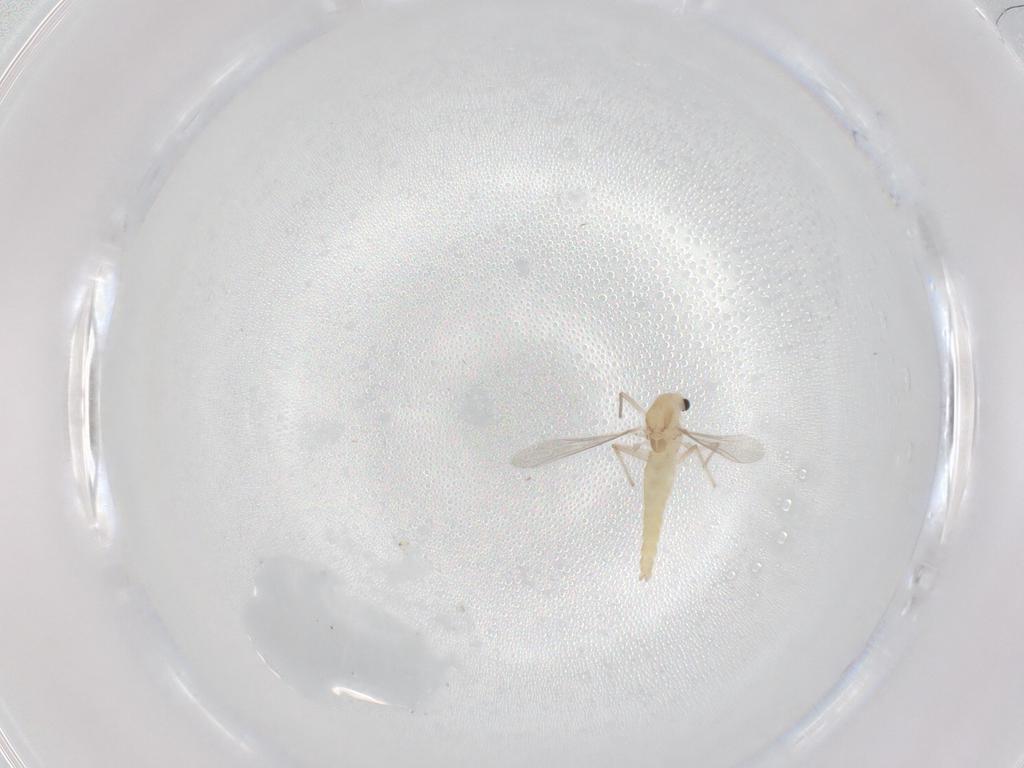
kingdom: Animalia
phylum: Arthropoda
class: Insecta
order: Diptera
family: Chironomidae
